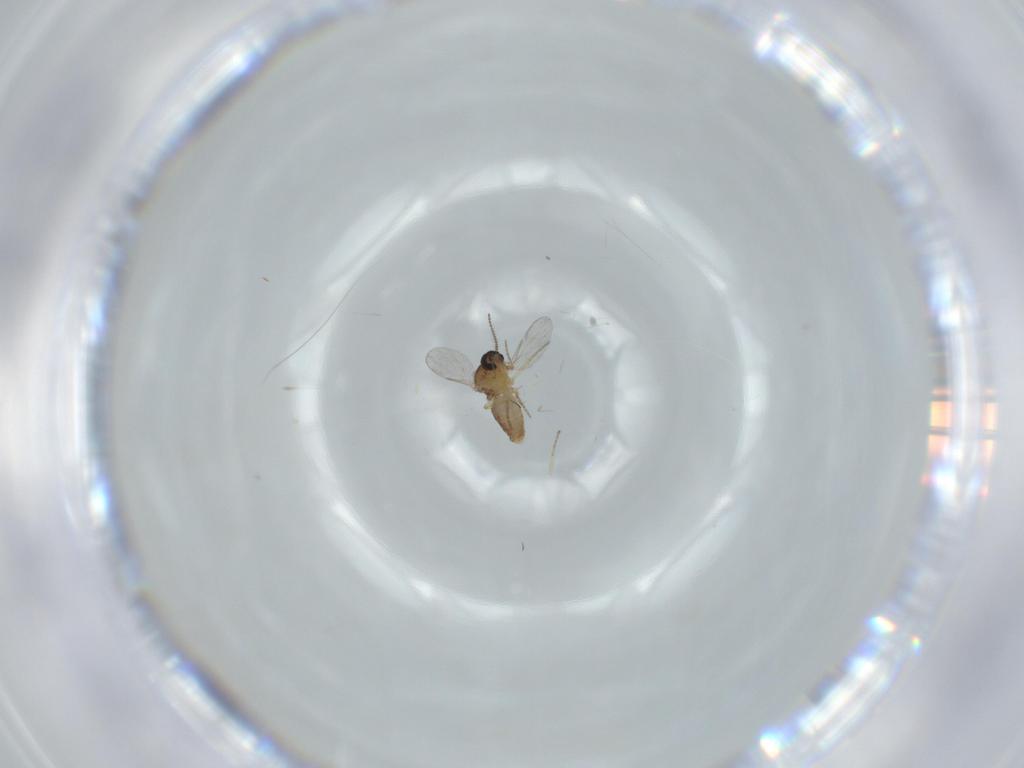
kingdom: Animalia
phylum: Arthropoda
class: Insecta
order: Diptera
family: Ceratopogonidae
